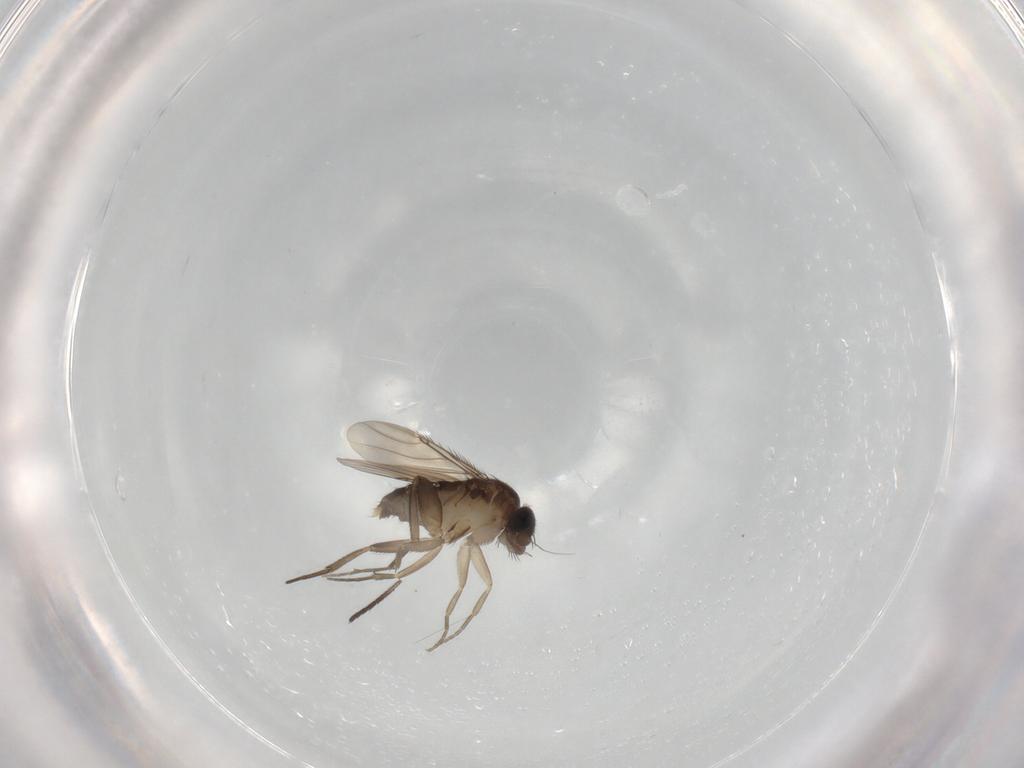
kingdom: Animalia
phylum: Arthropoda
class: Insecta
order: Diptera
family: Phoridae
